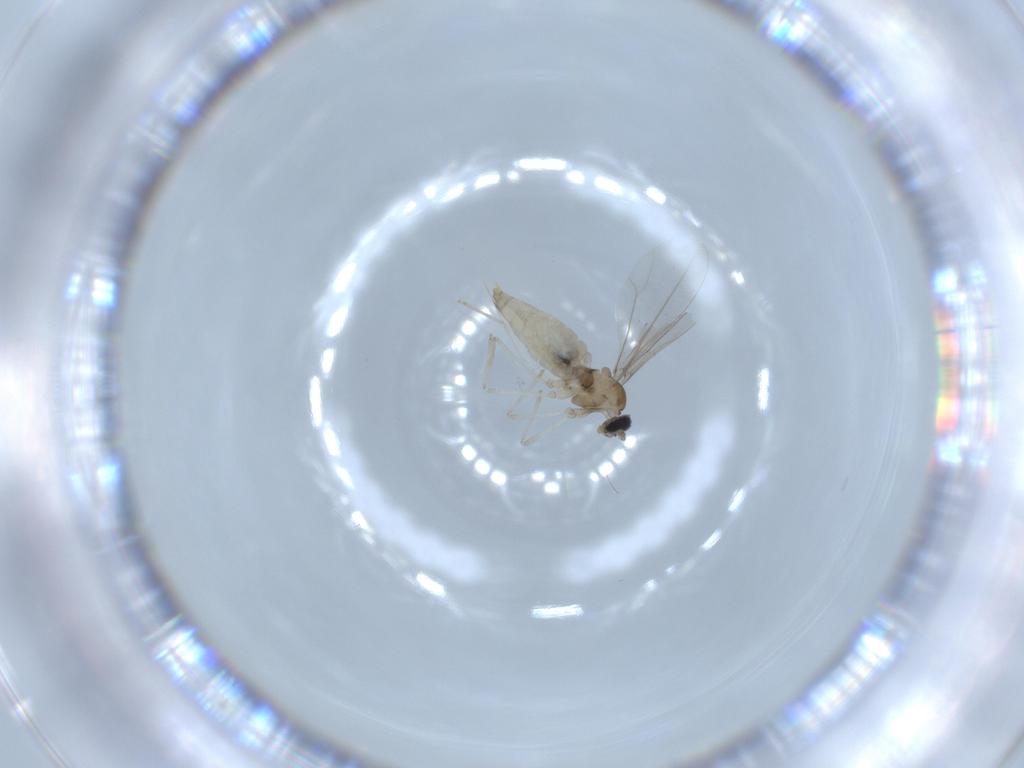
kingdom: Animalia
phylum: Arthropoda
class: Insecta
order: Diptera
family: Cecidomyiidae
